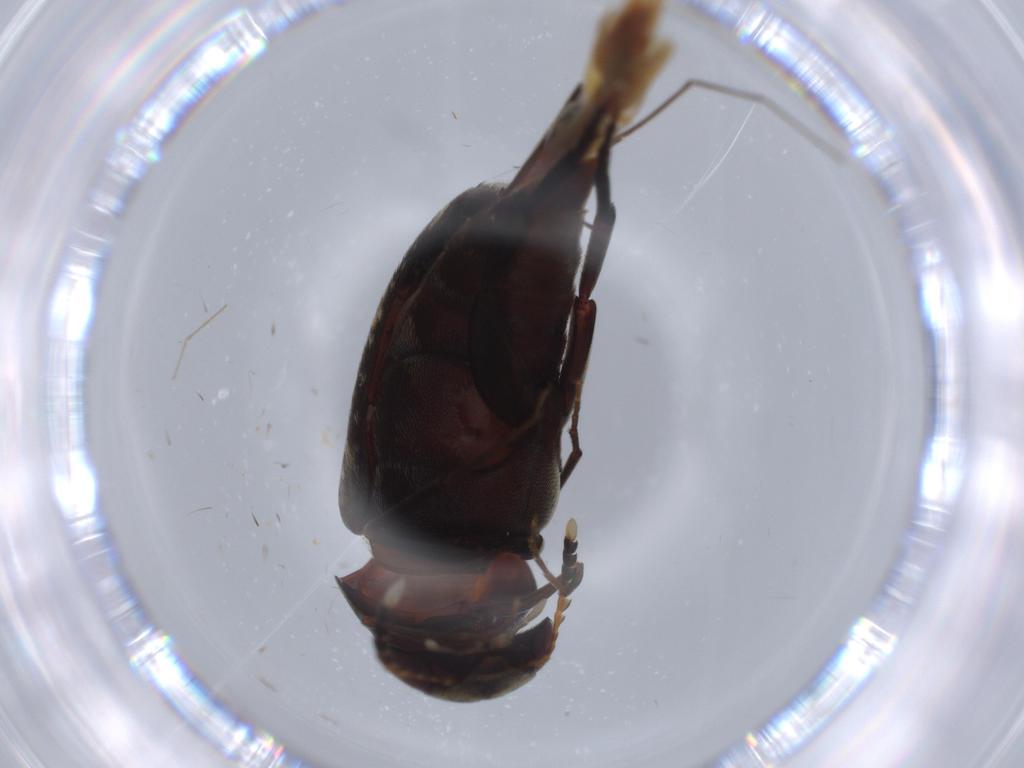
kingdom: Animalia
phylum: Arthropoda
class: Insecta
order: Coleoptera
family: Mordellidae
